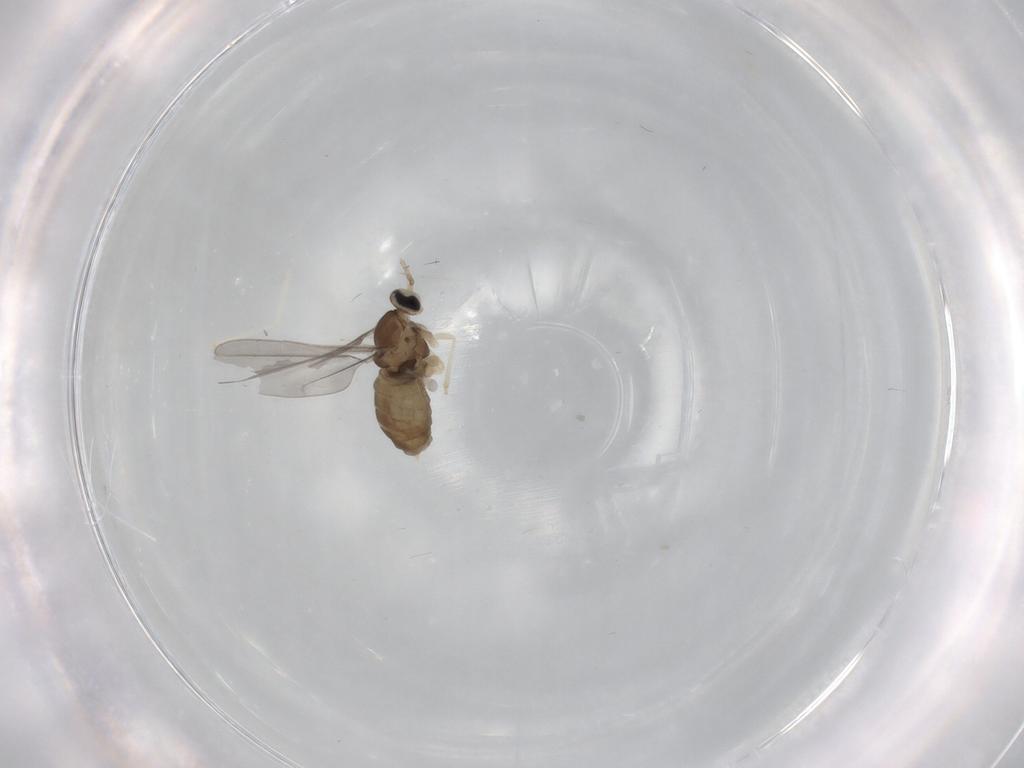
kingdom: Animalia
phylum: Arthropoda
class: Insecta
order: Diptera
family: Cecidomyiidae
